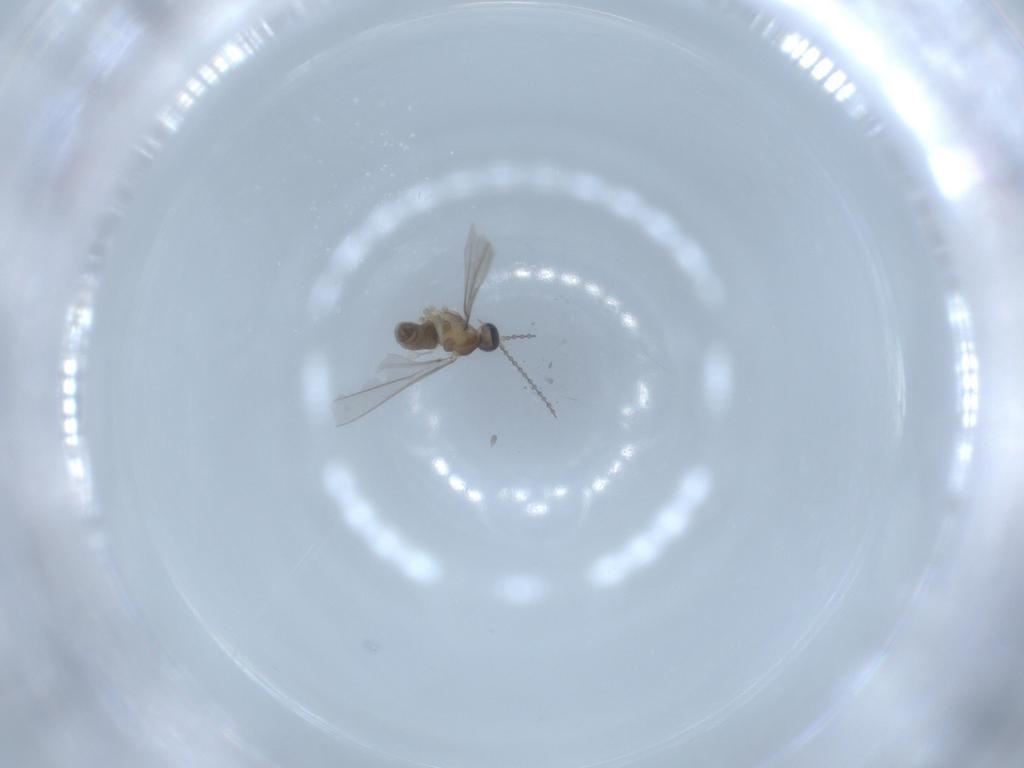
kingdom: Animalia
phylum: Arthropoda
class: Insecta
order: Diptera
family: Cecidomyiidae
